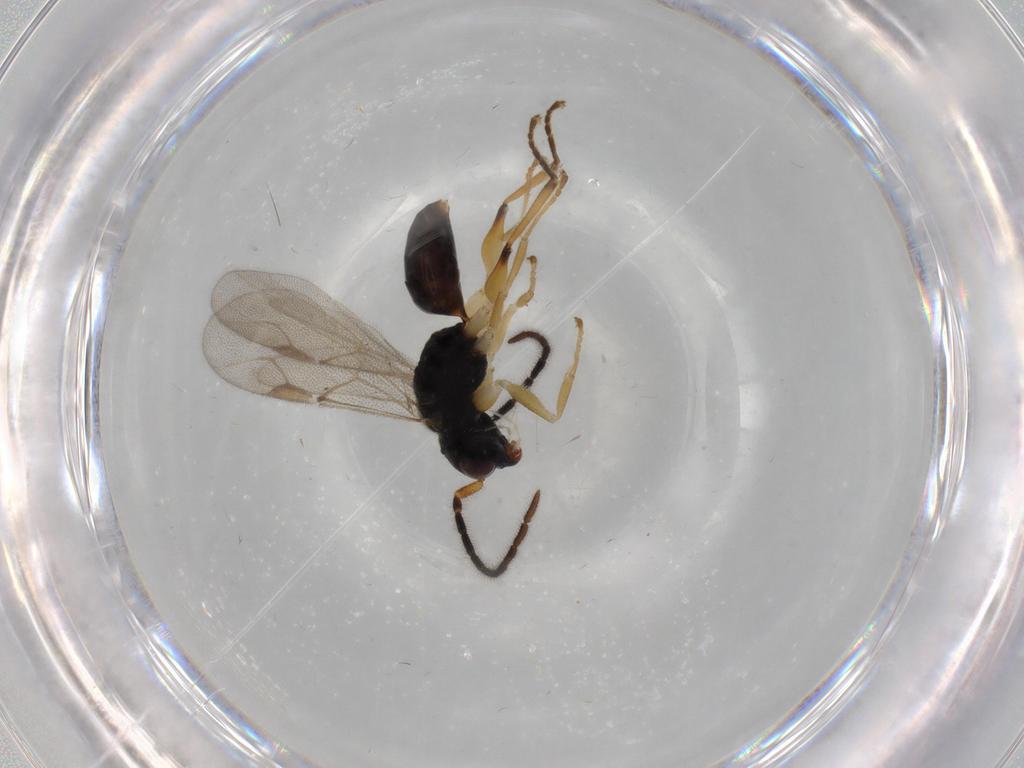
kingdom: Animalia
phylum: Arthropoda
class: Insecta
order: Hymenoptera
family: Dryinidae
